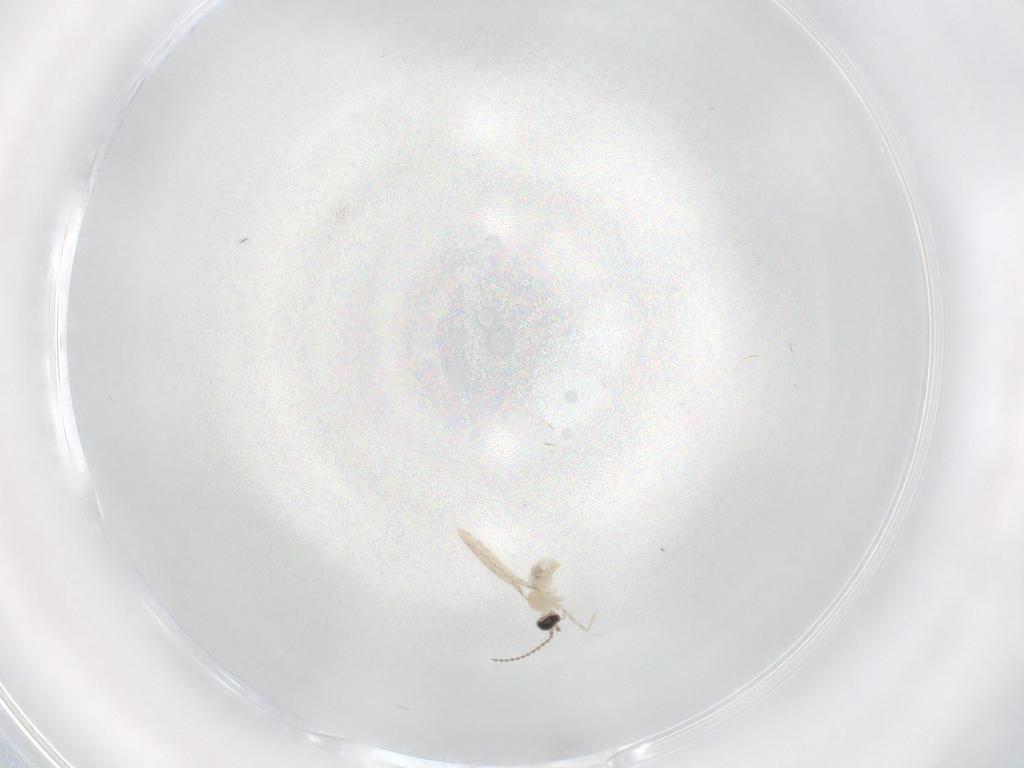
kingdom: Animalia
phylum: Arthropoda
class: Insecta
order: Diptera
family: Cecidomyiidae
